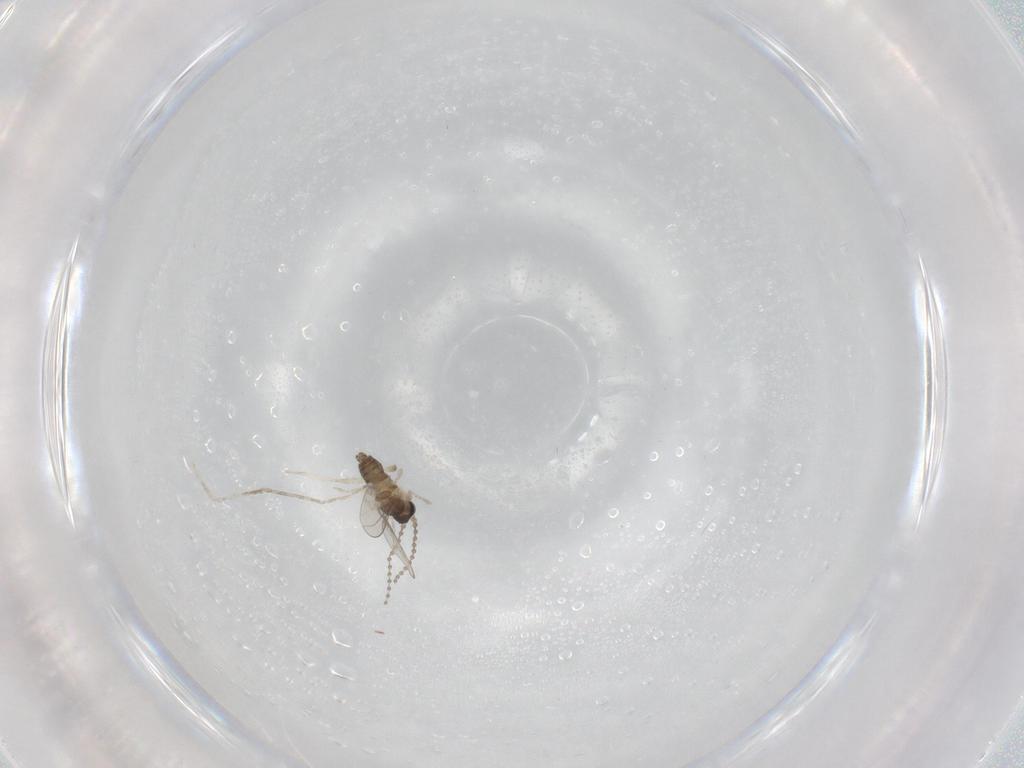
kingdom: Animalia
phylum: Arthropoda
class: Insecta
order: Diptera
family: Cecidomyiidae
